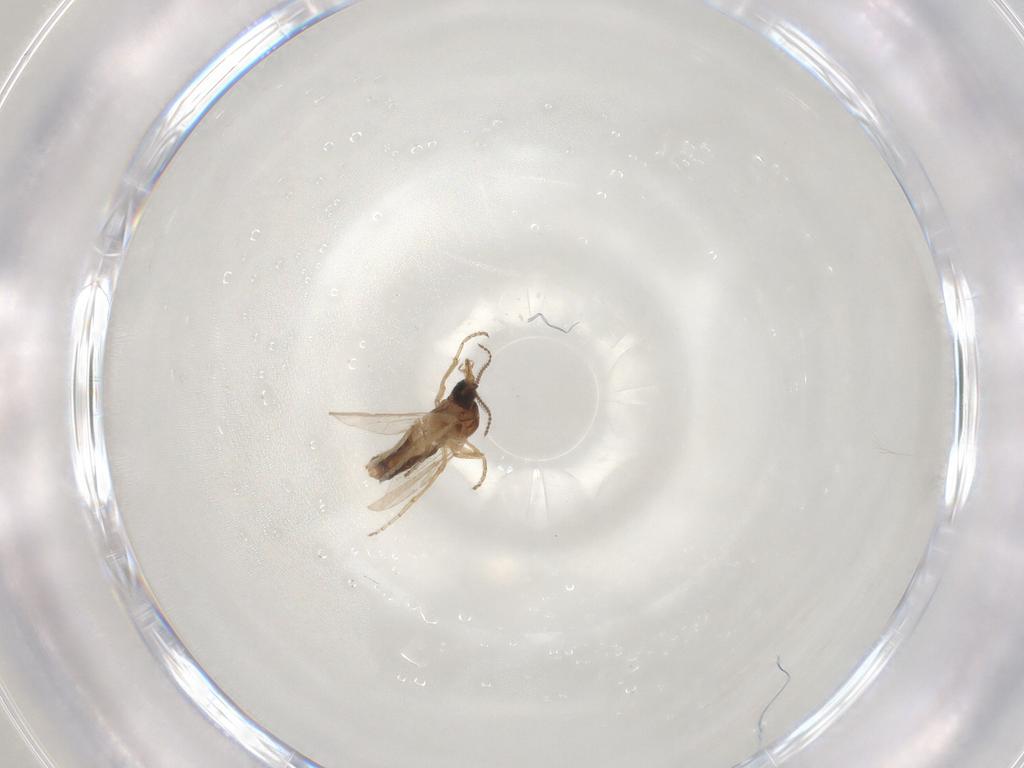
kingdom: Animalia
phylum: Arthropoda
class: Insecta
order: Diptera
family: Ceratopogonidae
